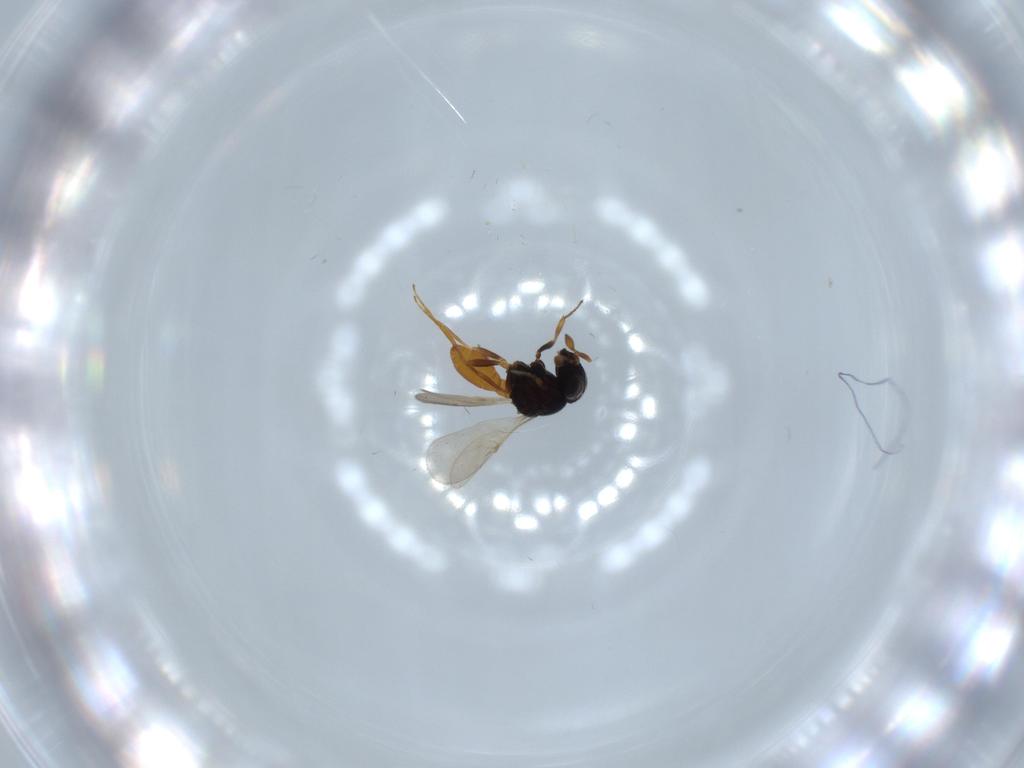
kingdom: Animalia
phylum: Arthropoda
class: Insecta
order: Hymenoptera
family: Scelionidae
